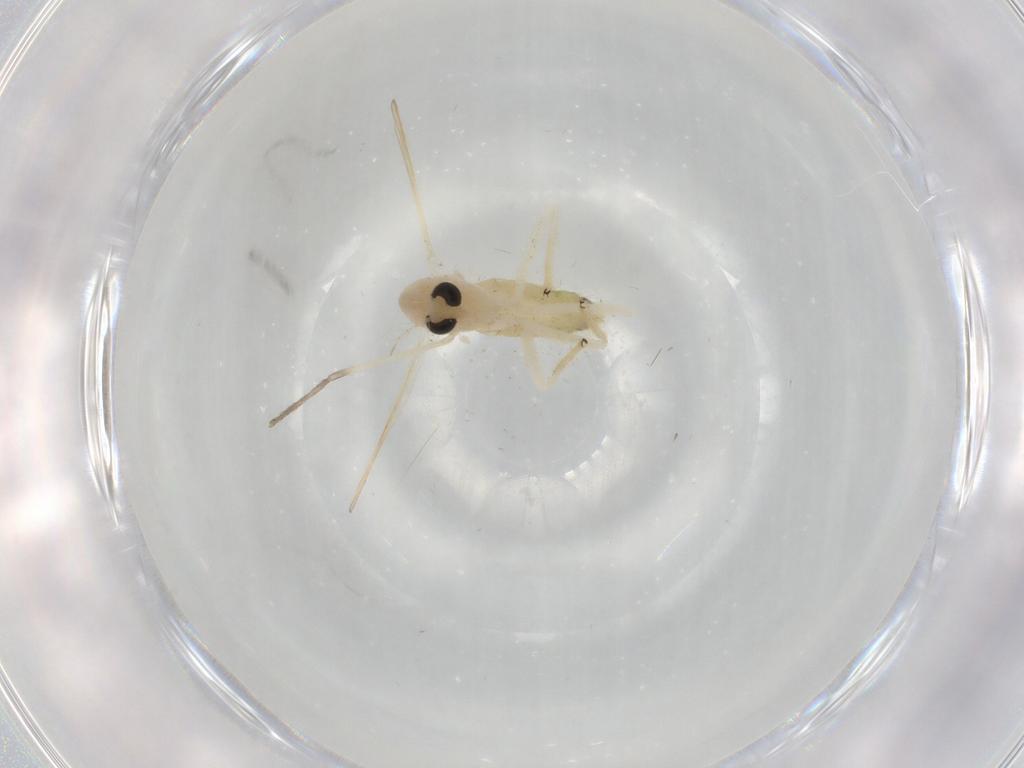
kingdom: Animalia
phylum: Arthropoda
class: Insecta
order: Diptera
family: Chironomidae
